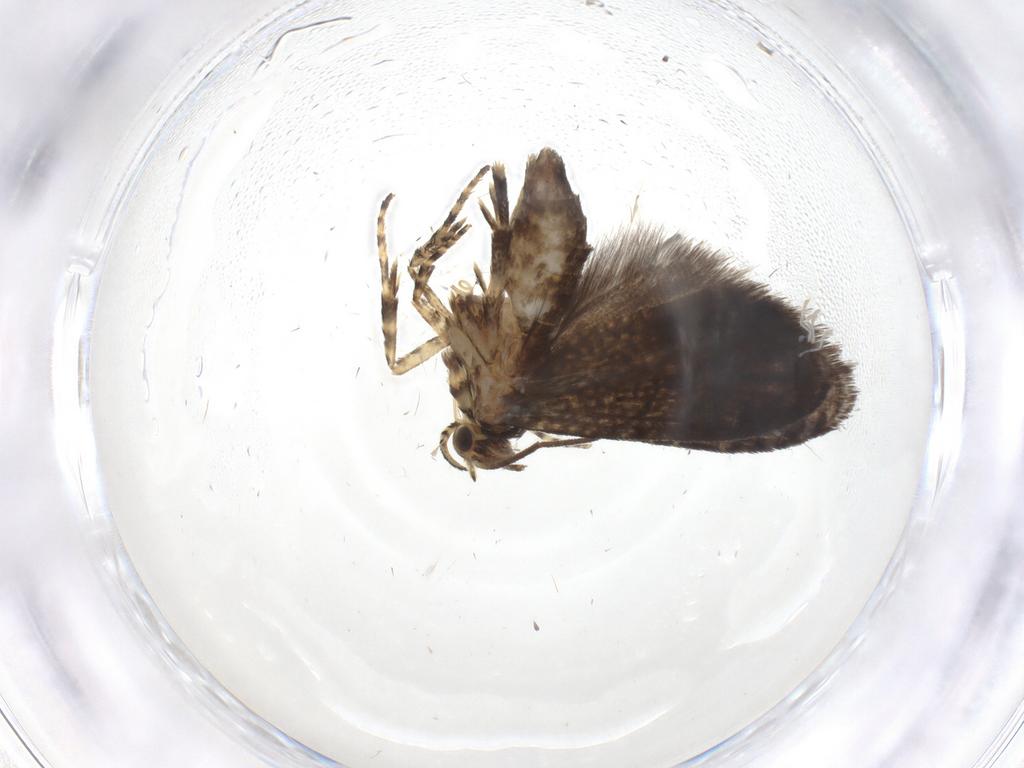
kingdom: Animalia
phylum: Arthropoda
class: Insecta
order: Lepidoptera
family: Geometridae
